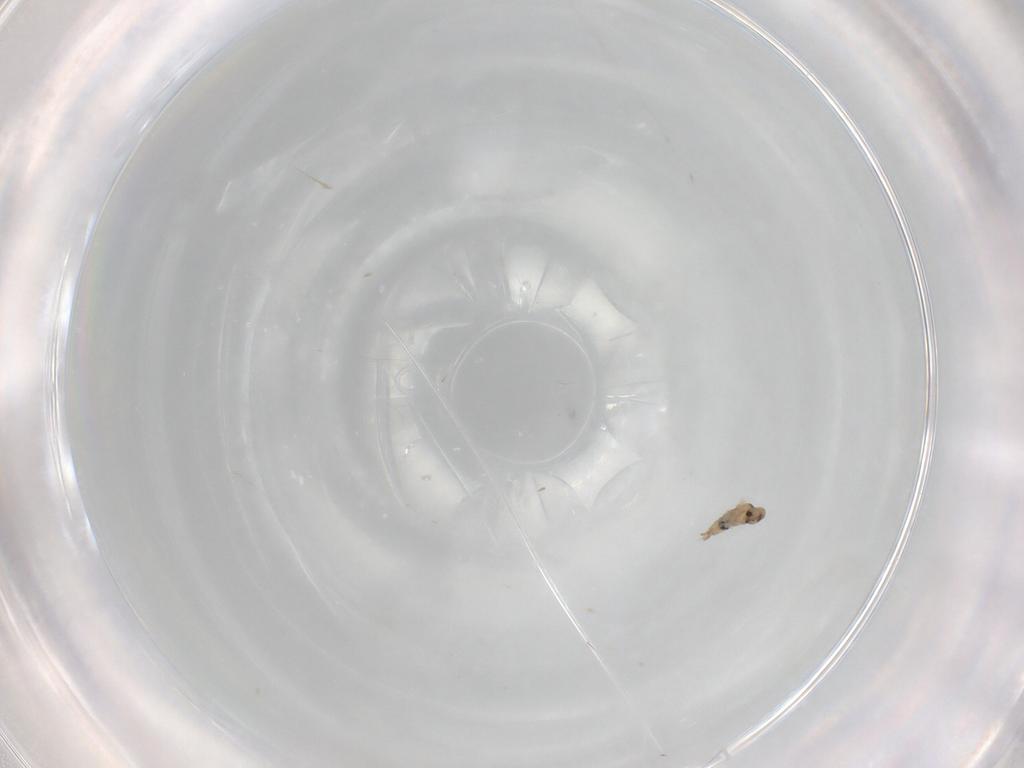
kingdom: Animalia
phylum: Arthropoda
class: Insecta
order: Diptera
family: Cecidomyiidae
